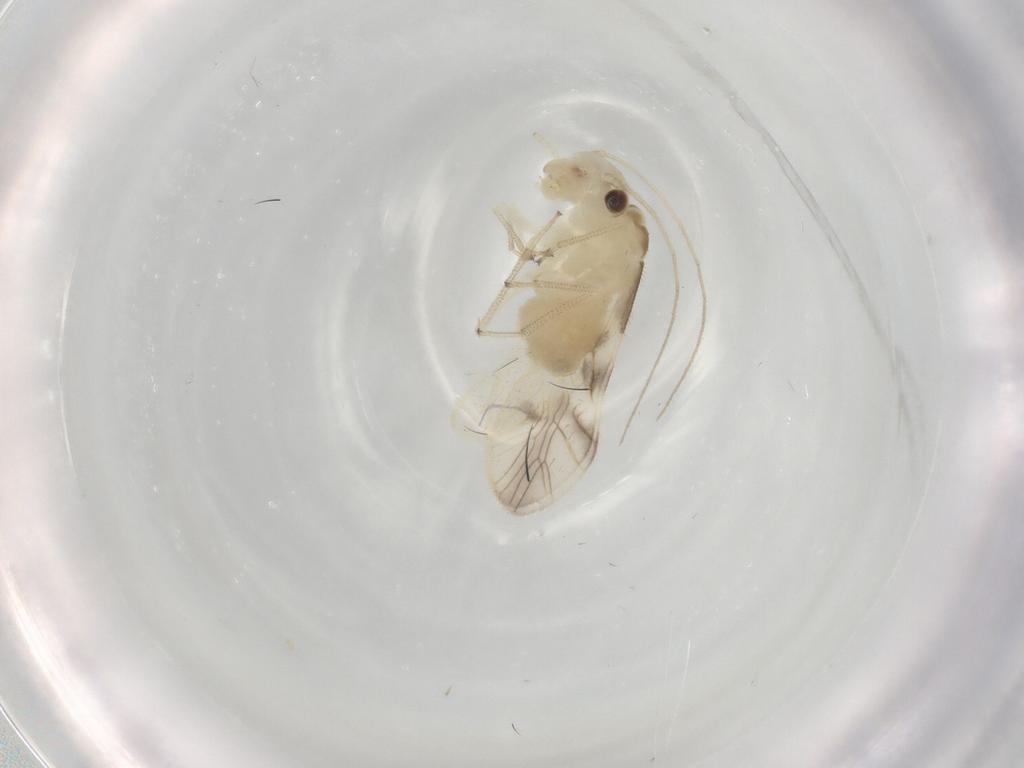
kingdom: Animalia
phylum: Arthropoda
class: Insecta
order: Psocodea
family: Caeciliusidae
